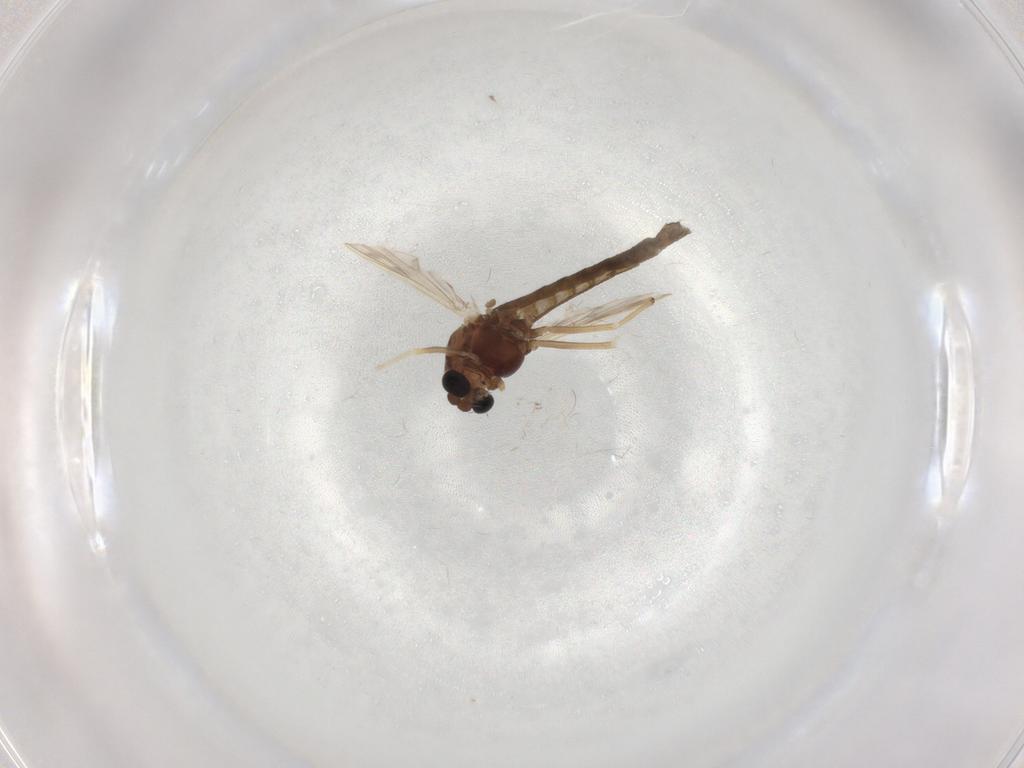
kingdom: Animalia
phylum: Arthropoda
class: Insecta
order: Diptera
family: Chironomidae
